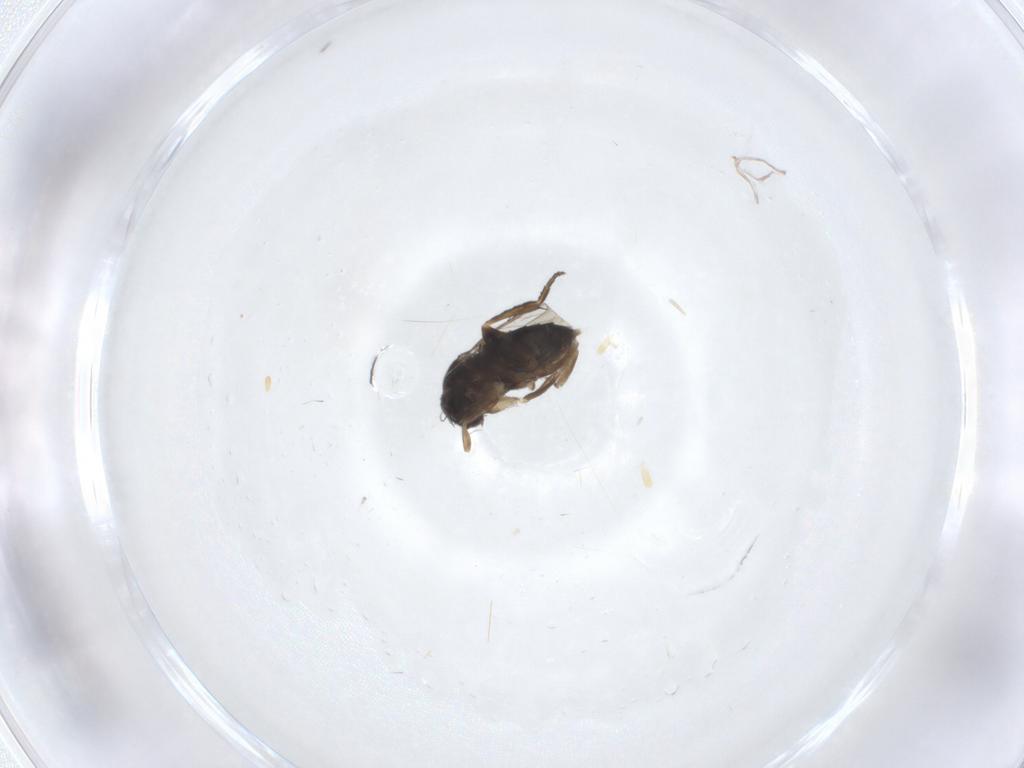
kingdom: Animalia
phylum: Arthropoda
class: Insecta
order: Diptera
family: Phoridae
